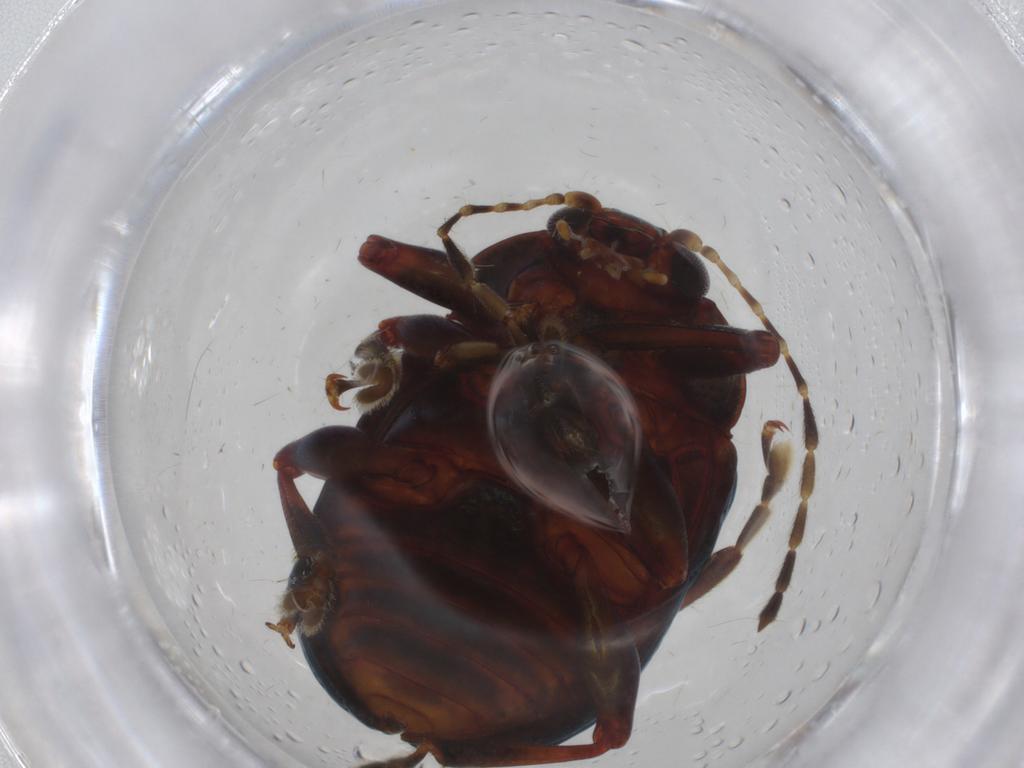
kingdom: Animalia
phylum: Arthropoda
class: Insecta
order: Coleoptera
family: Chrysomelidae
